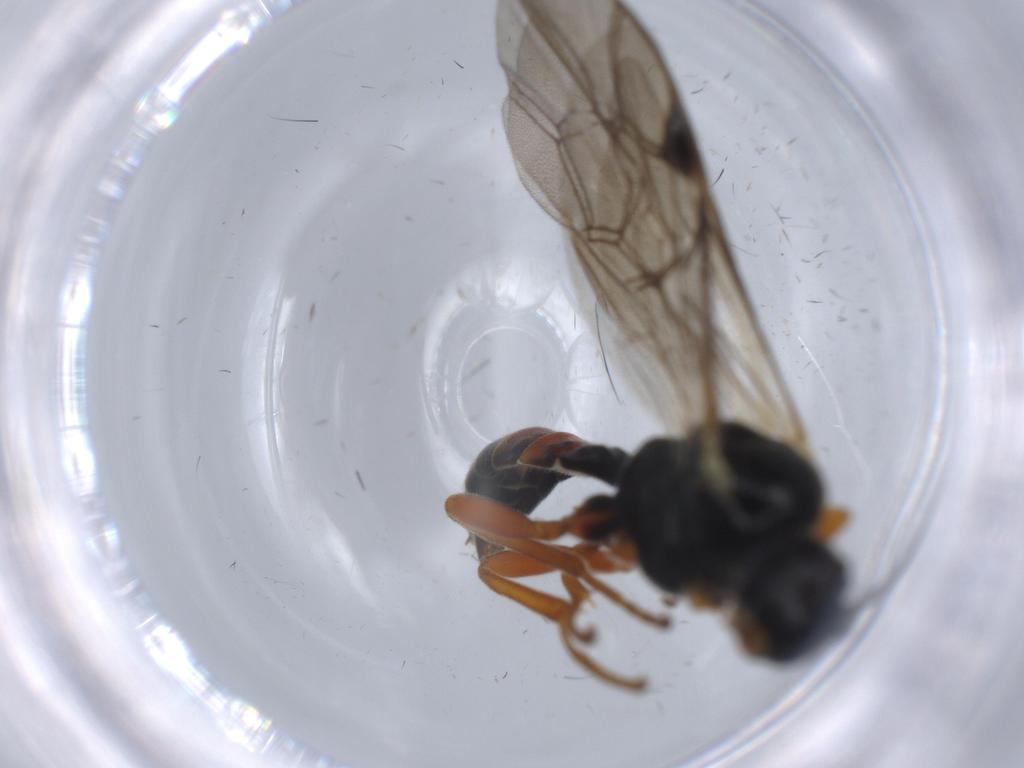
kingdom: Animalia
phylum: Arthropoda
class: Insecta
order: Hymenoptera
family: Ichneumonidae
